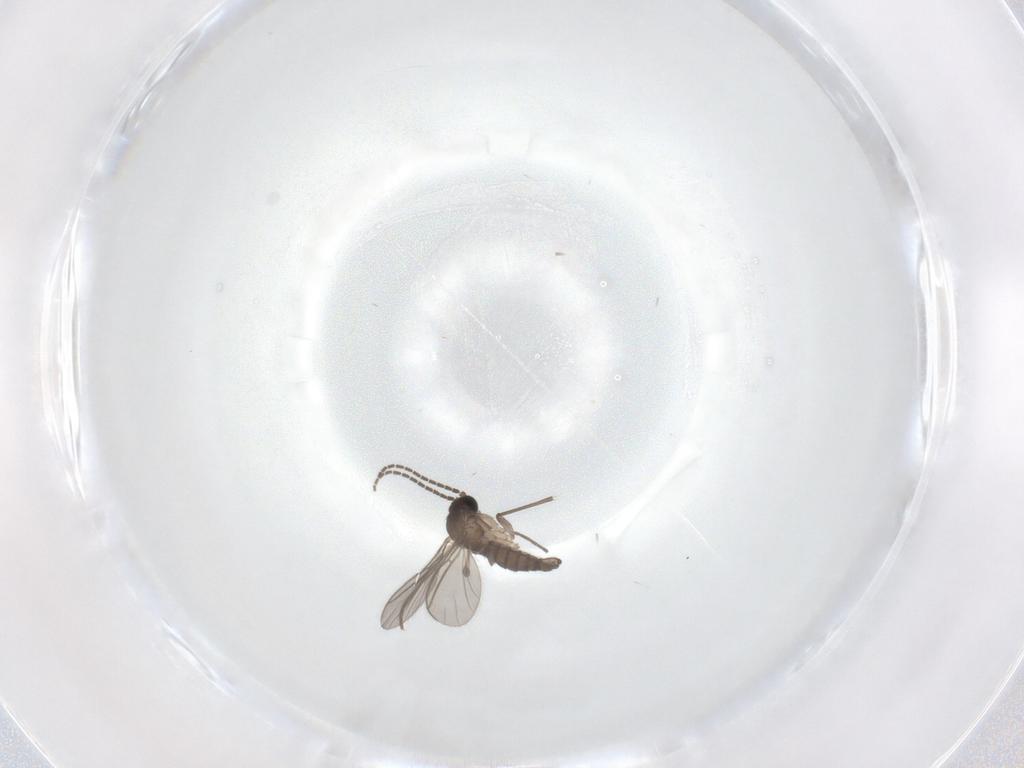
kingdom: Animalia
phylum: Arthropoda
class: Insecta
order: Diptera
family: Sciaridae
